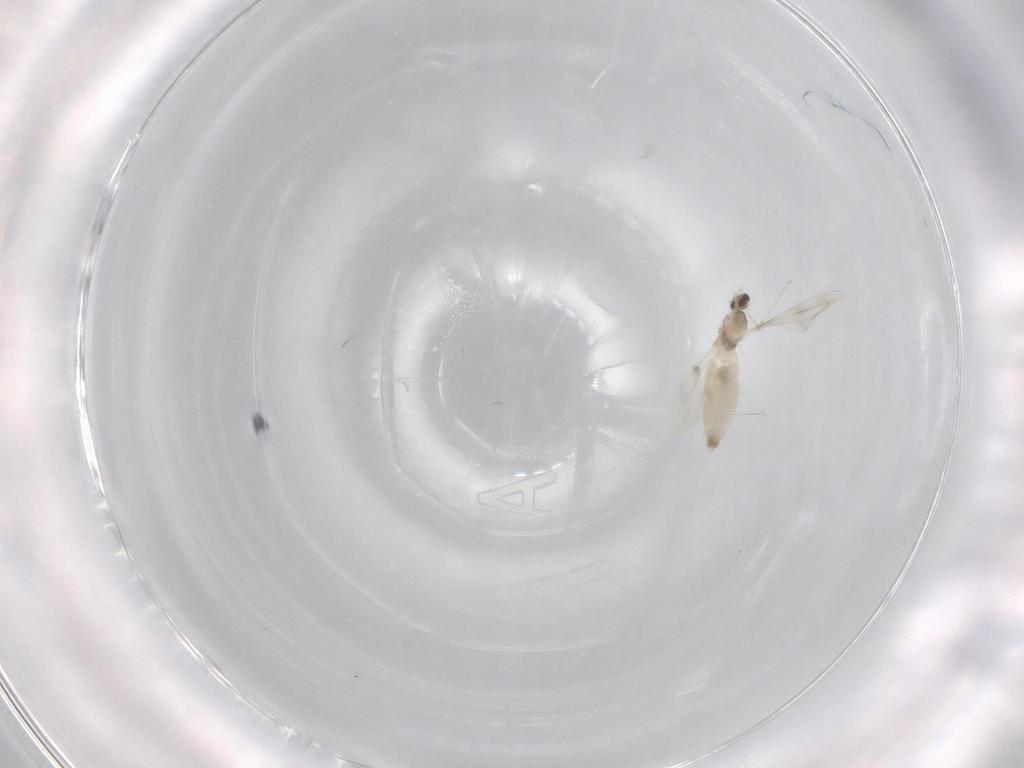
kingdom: Animalia
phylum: Arthropoda
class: Insecta
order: Diptera
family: Cecidomyiidae
